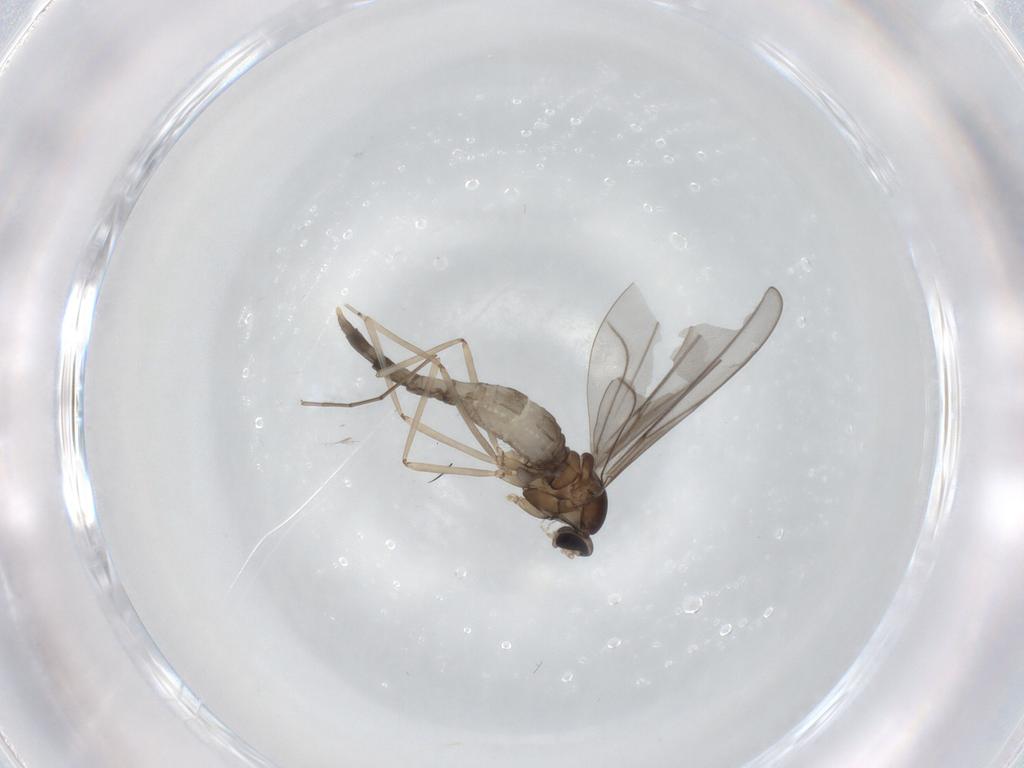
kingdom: Animalia
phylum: Arthropoda
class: Insecta
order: Diptera
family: Cecidomyiidae
